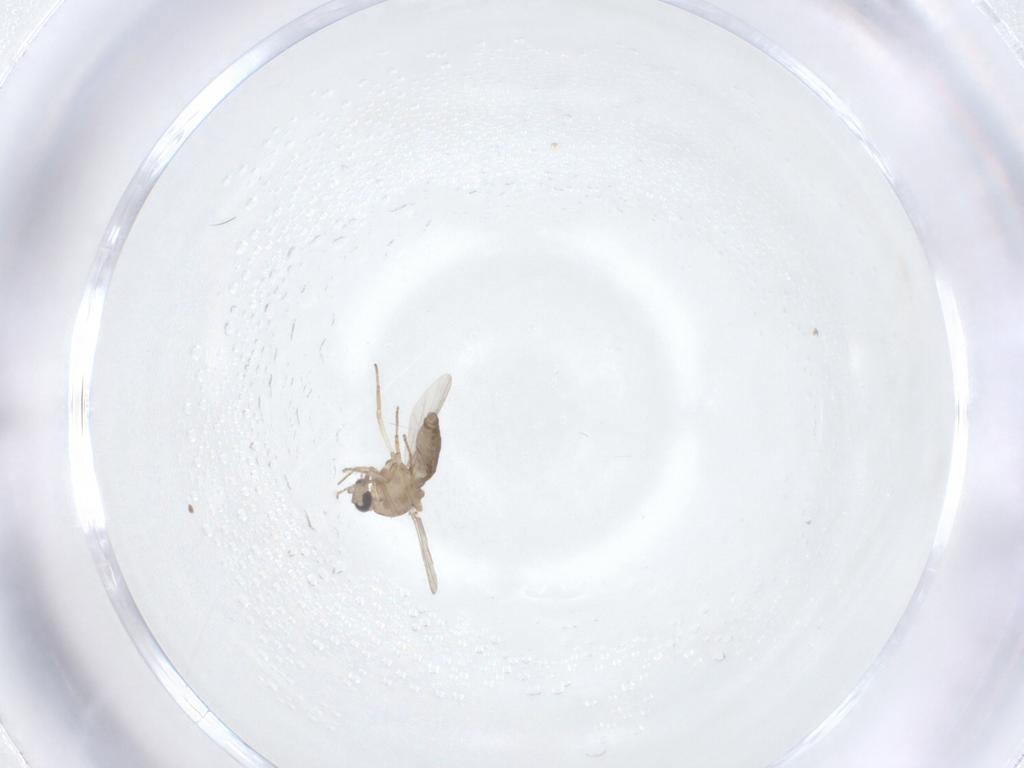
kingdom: Animalia
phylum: Arthropoda
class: Insecta
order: Diptera
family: Ceratopogonidae
